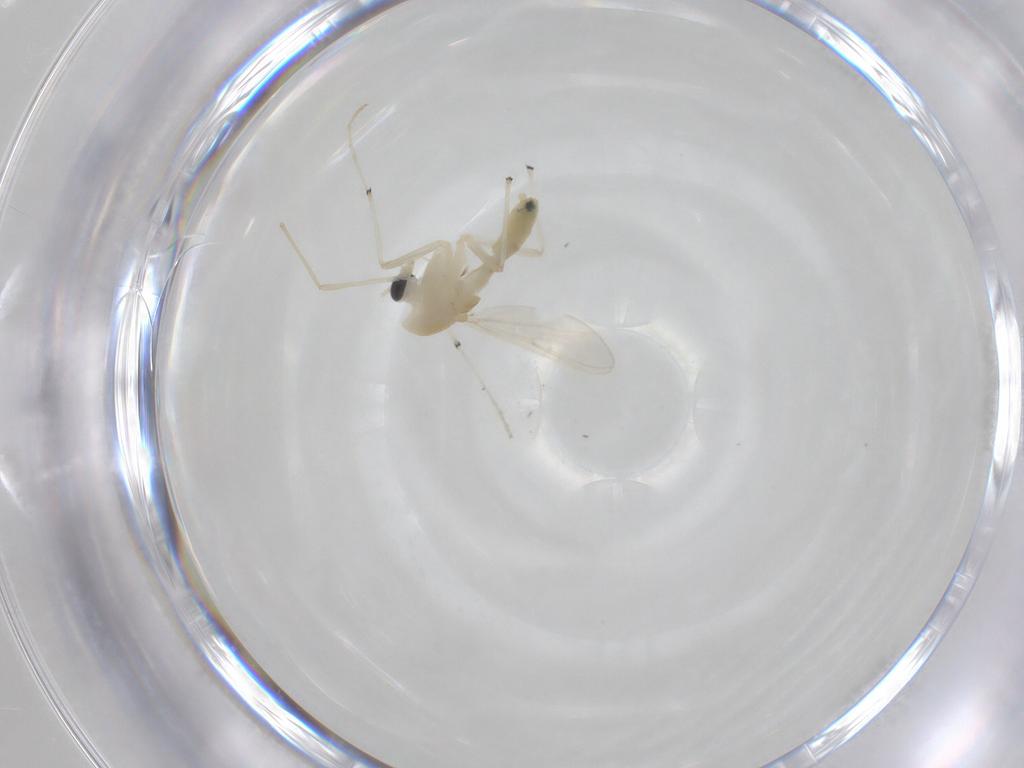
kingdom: Animalia
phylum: Arthropoda
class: Insecta
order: Diptera
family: Chironomidae
